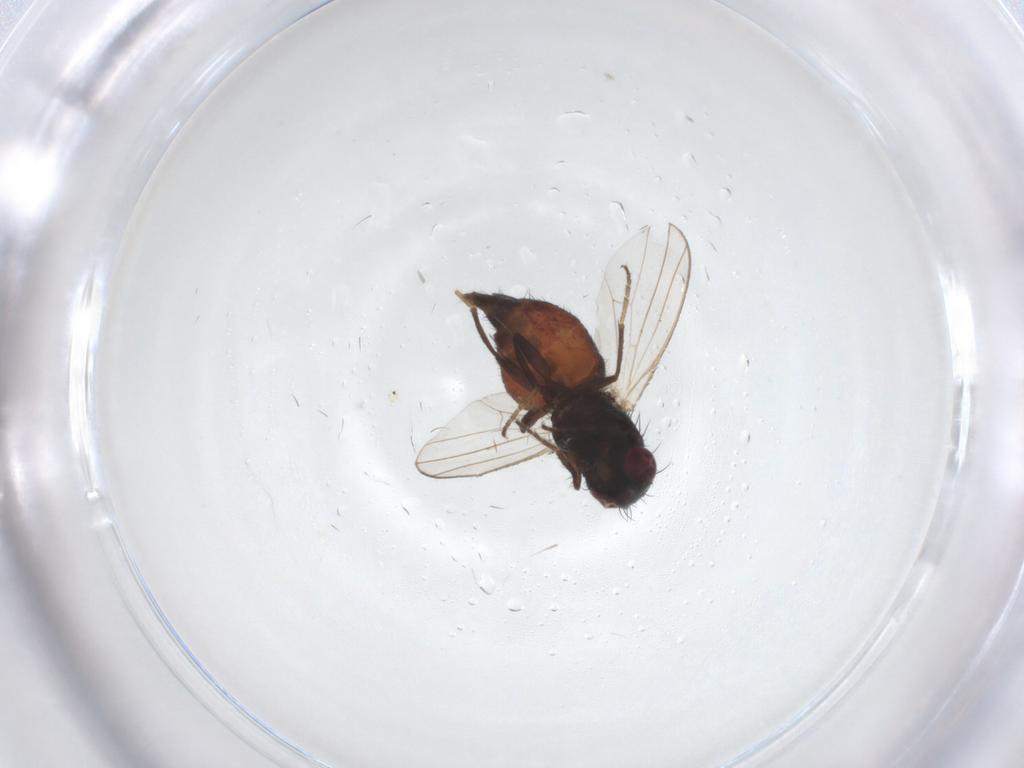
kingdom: Animalia
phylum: Arthropoda
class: Insecta
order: Diptera
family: Carnidae
